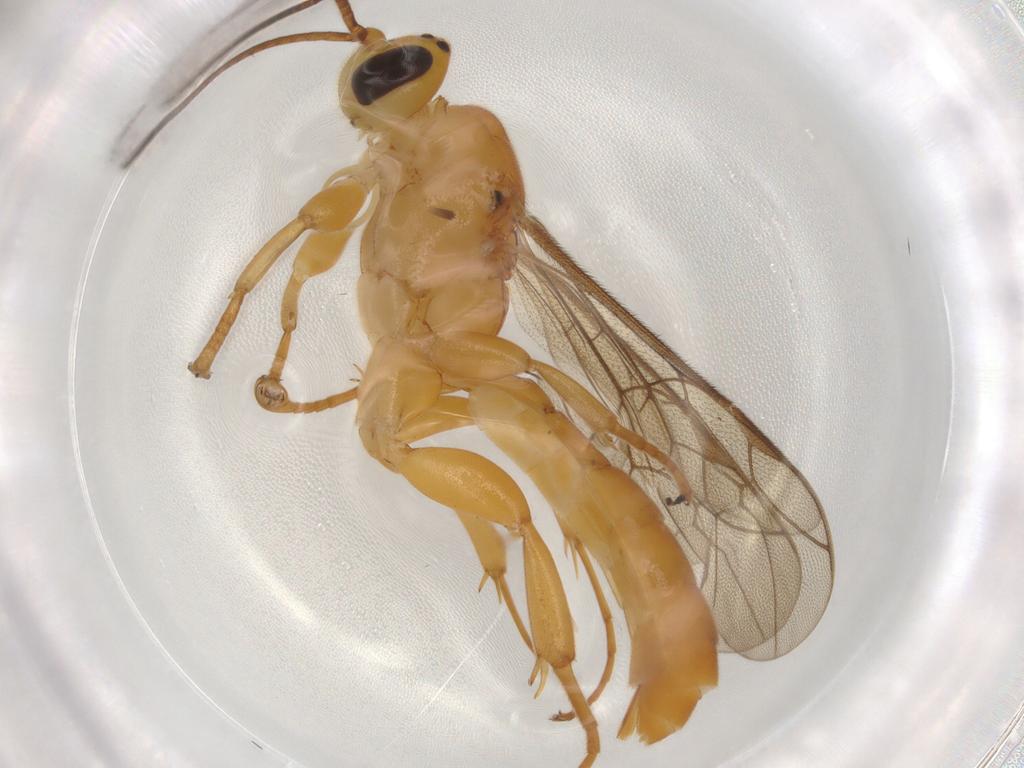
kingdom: Animalia
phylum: Arthropoda
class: Insecta
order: Hymenoptera
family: Ichneumonidae
